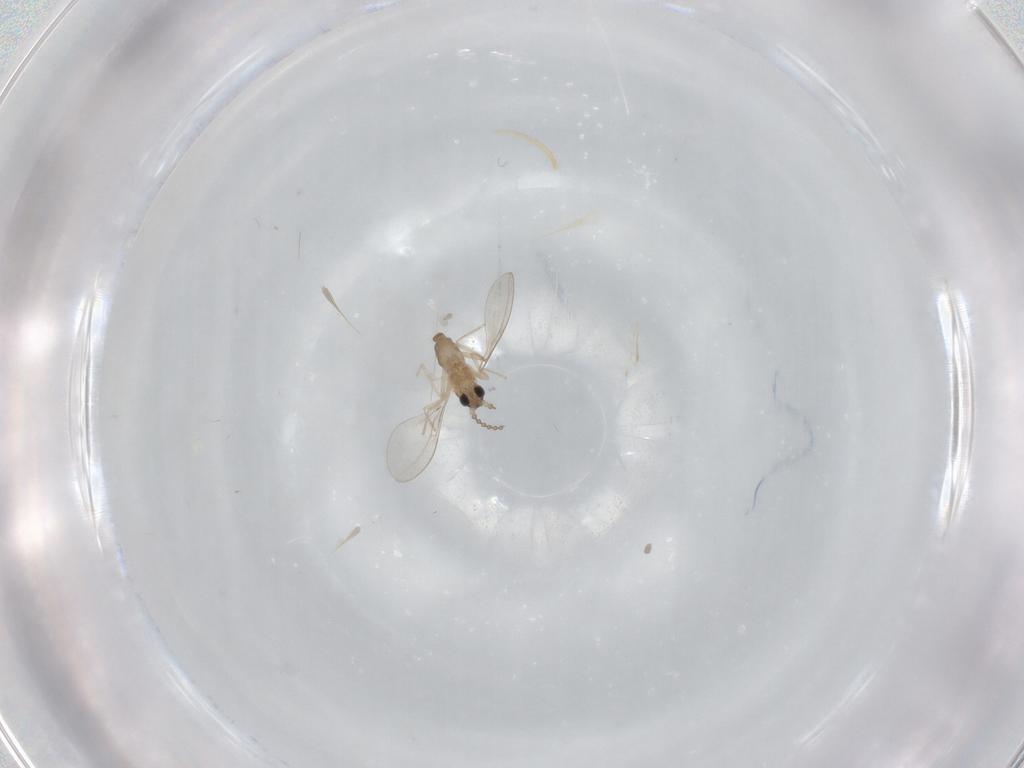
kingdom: Animalia
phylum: Arthropoda
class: Insecta
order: Diptera
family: Cecidomyiidae
